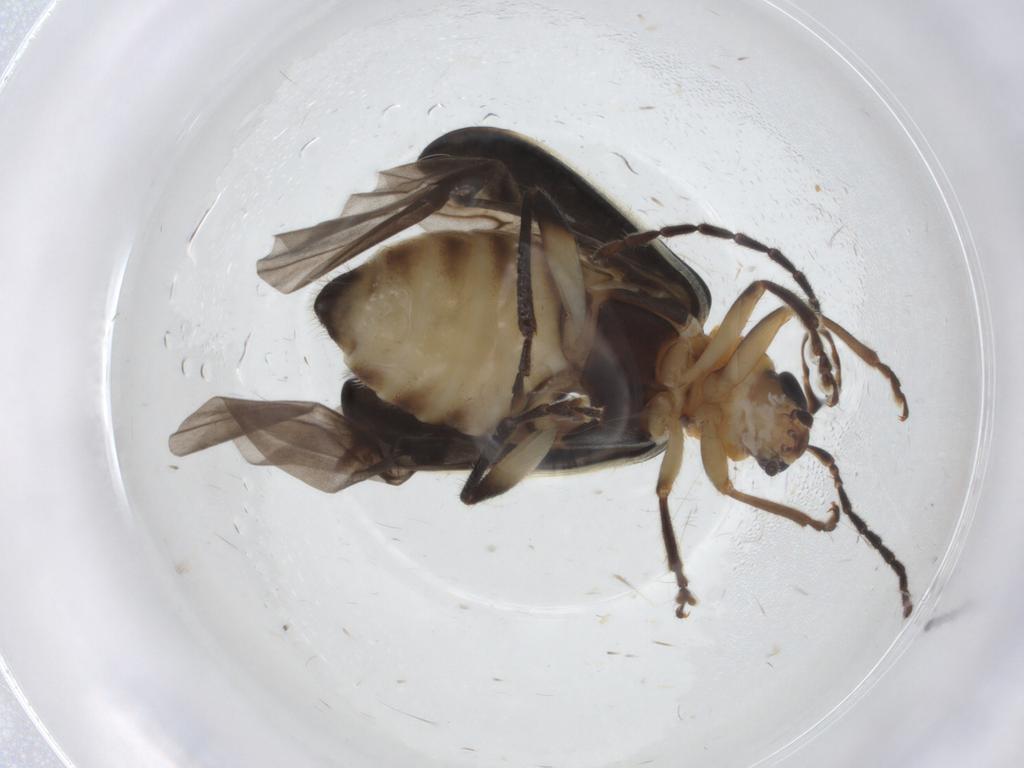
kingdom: Animalia
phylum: Arthropoda
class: Insecta
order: Coleoptera
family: Chrysomelidae
